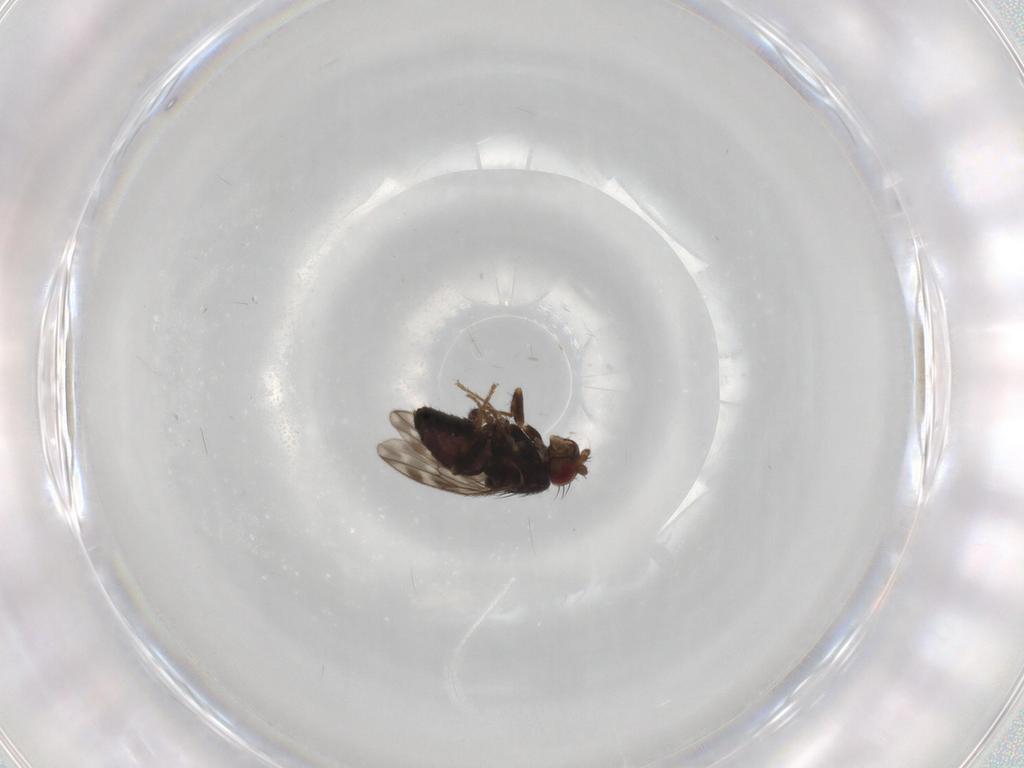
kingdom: Animalia
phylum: Arthropoda
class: Insecta
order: Diptera
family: Sphaeroceridae
